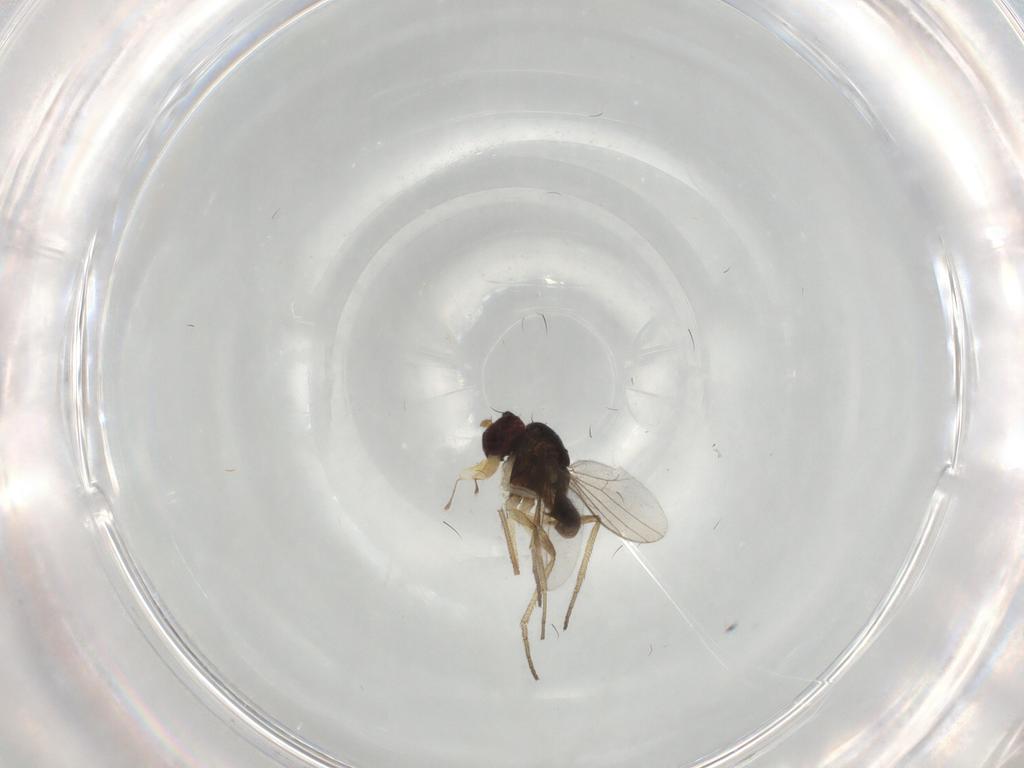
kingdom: Animalia
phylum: Arthropoda
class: Insecta
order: Diptera
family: Dolichopodidae
